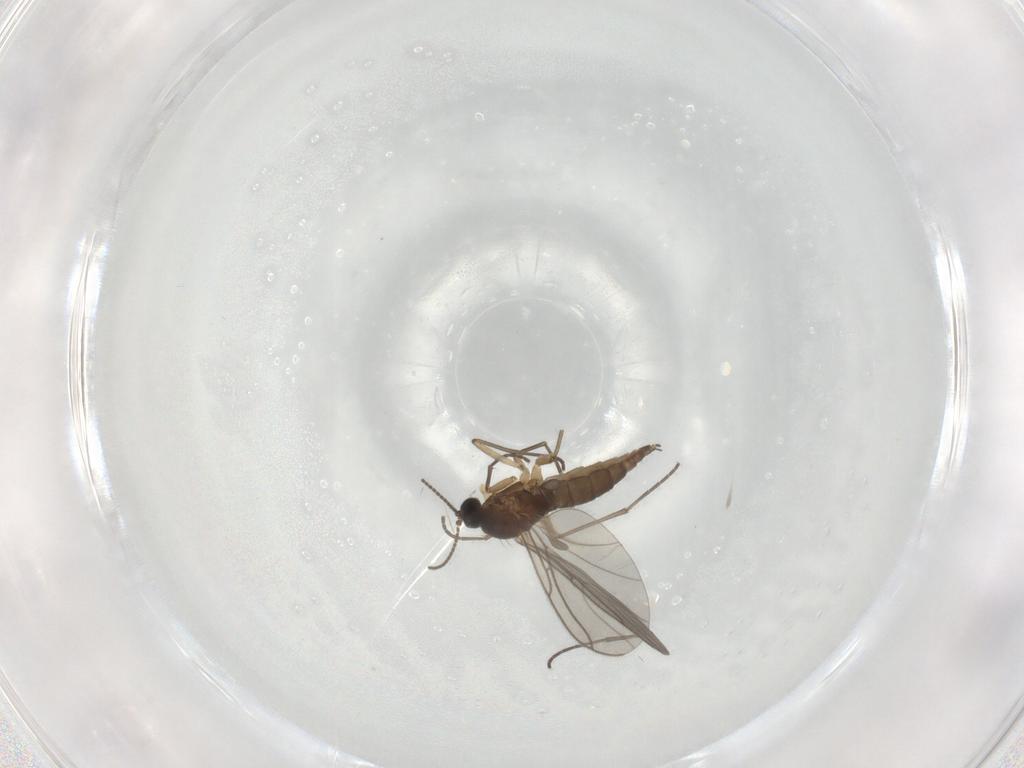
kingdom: Animalia
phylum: Arthropoda
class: Insecta
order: Diptera
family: Sciaridae
